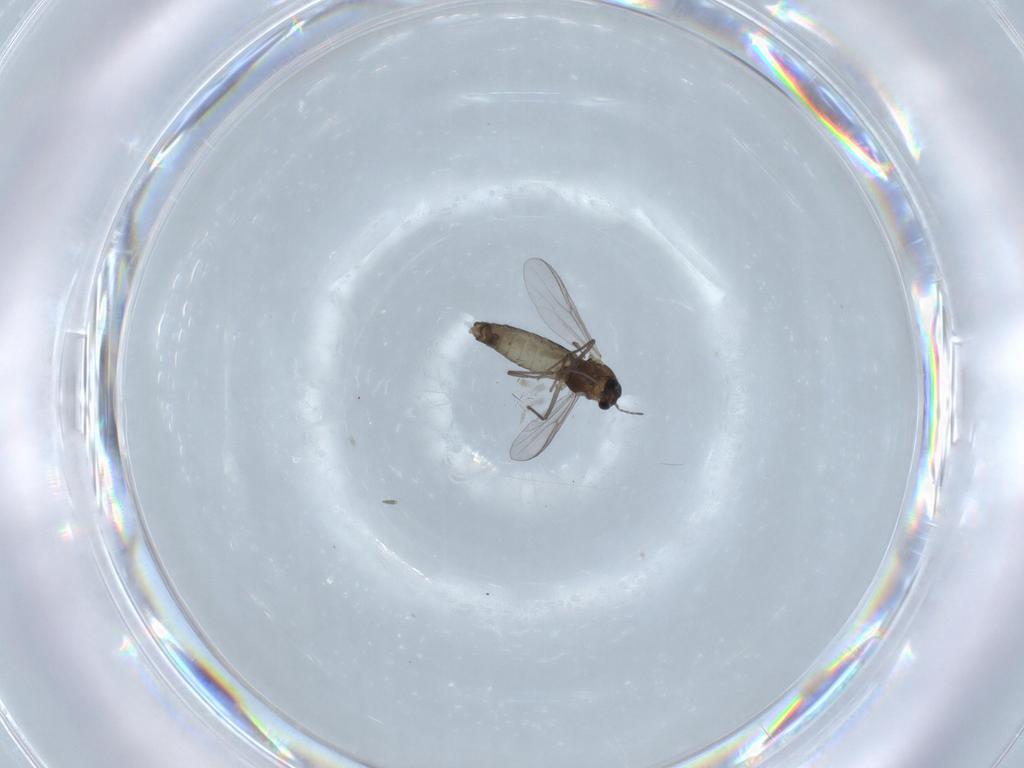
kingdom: Animalia
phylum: Arthropoda
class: Insecta
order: Diptera
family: Chironomidae
